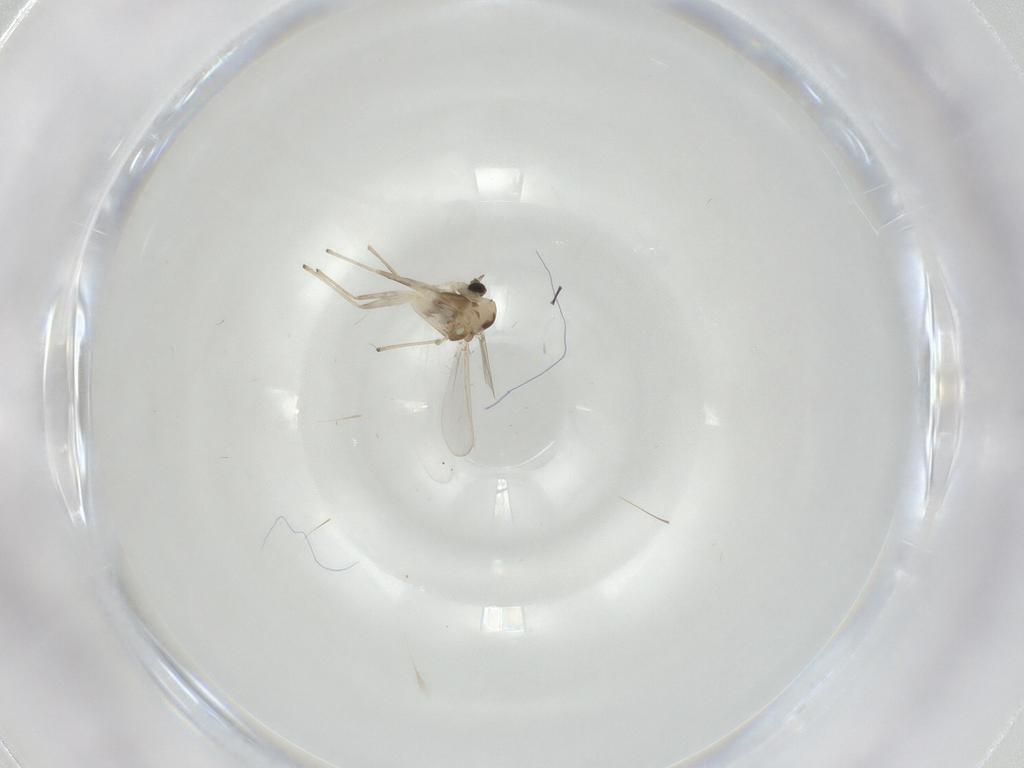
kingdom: Animalia
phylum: Arthropoda
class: Insecta
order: Diptera
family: Chironomidae
